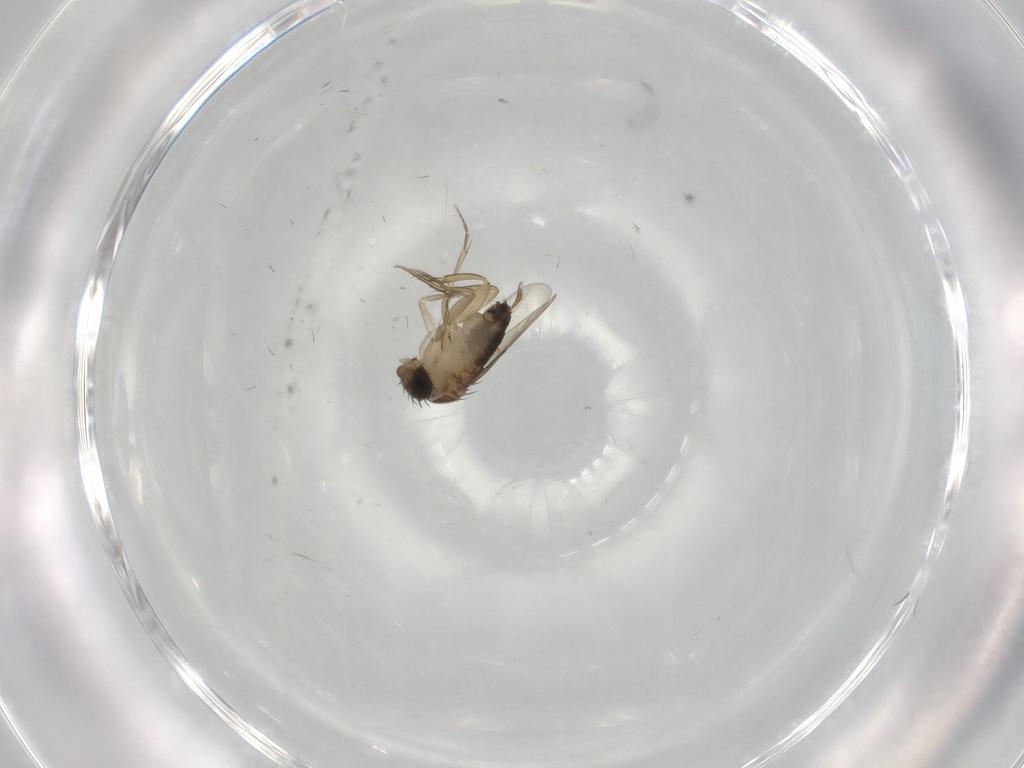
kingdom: Animalia
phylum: Arthropoda
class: Insecta
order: Diptera
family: Phoridae
